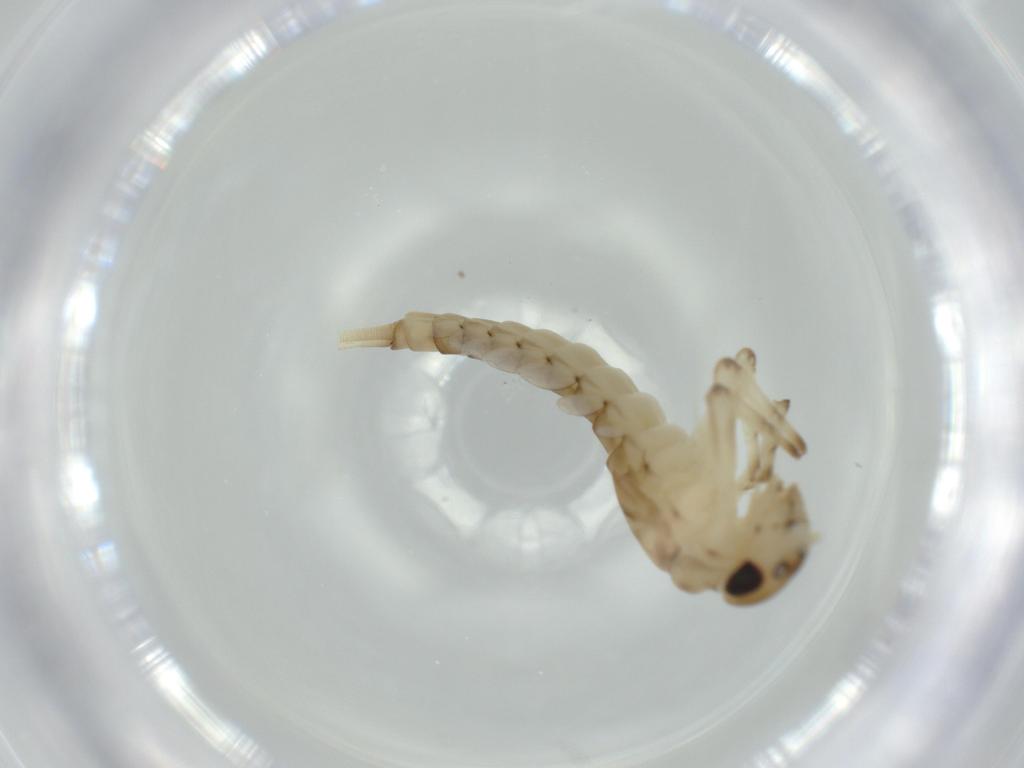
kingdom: Animalia
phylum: Arthropoda
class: Insecta
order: Ephemeroptera
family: Baetidae
